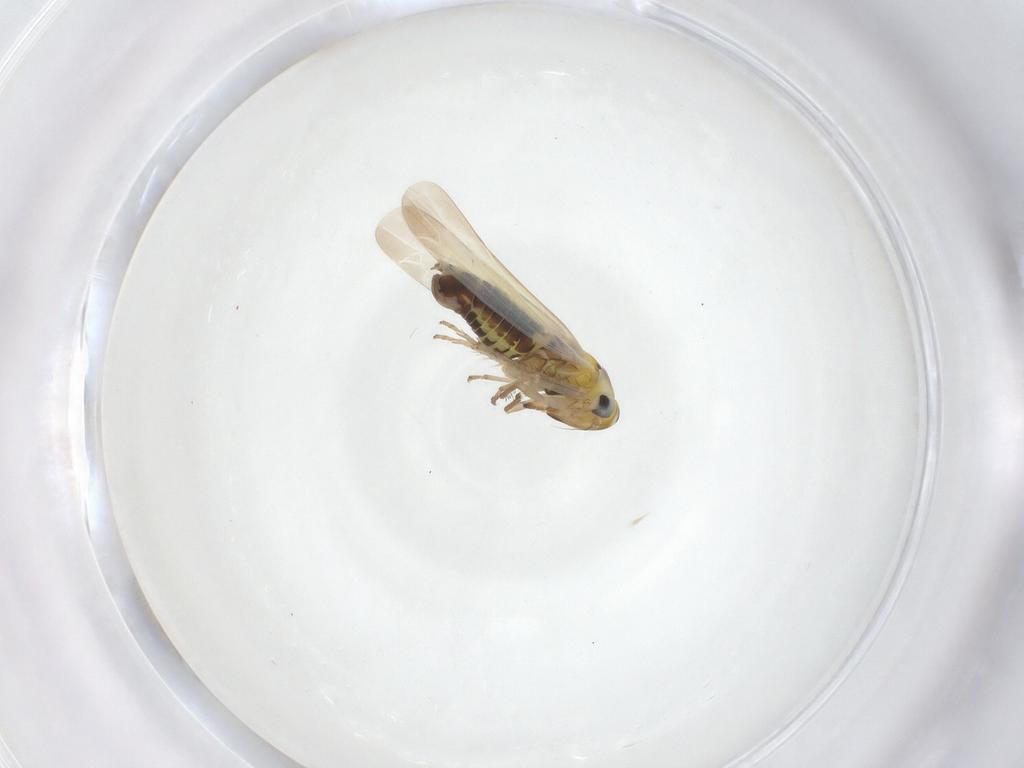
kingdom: Animalia
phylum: Arthropoda
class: Insecta
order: Hemiptera
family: Cicadellidae
